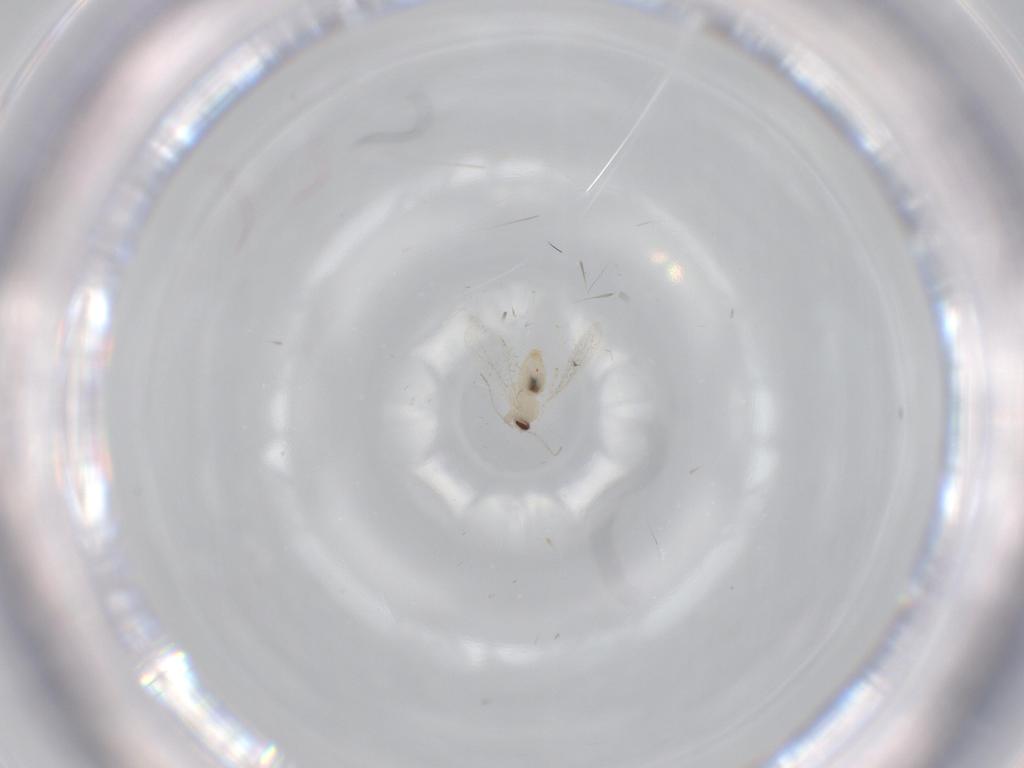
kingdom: Animalia
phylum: Arthropoda
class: Insecta
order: Diptera
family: Cecidomyiidae
